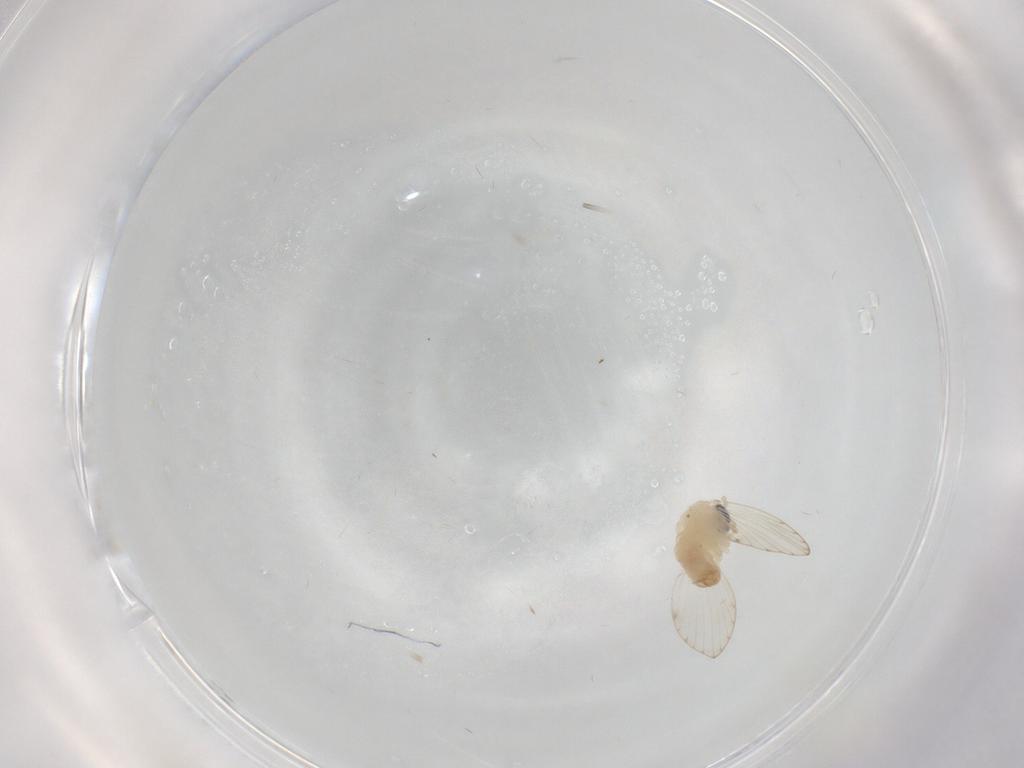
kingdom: Animalia
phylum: Arthropoda
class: Insecta
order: Diptera
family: Psychodidae
